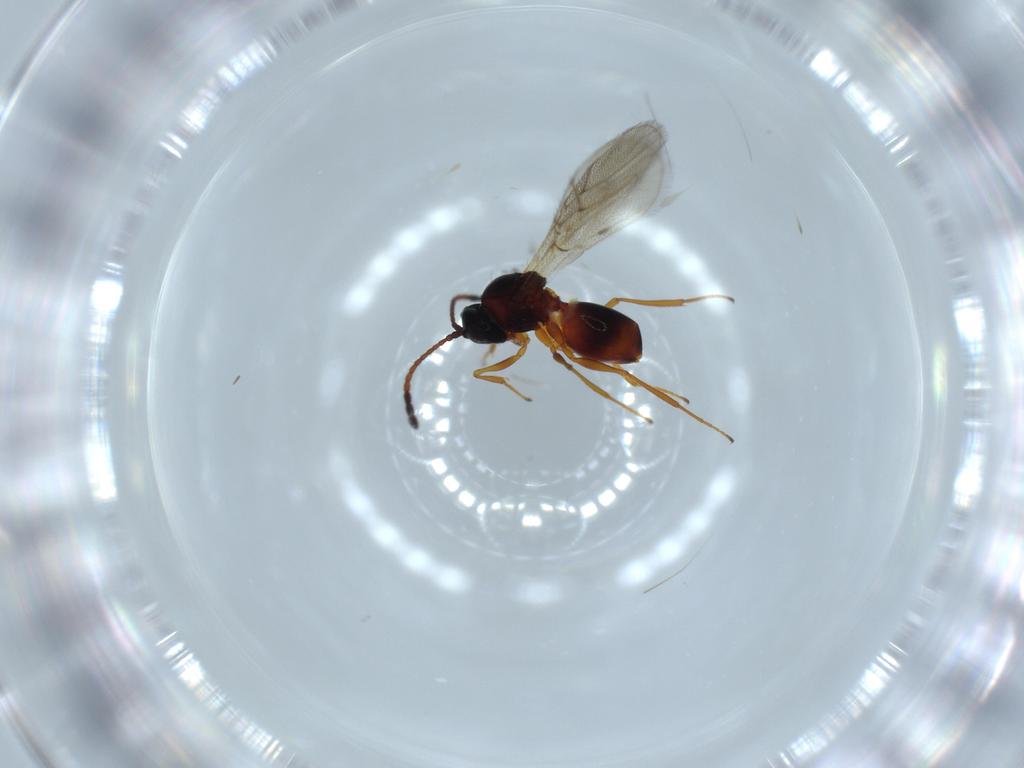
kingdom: Animalia
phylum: Arthropoda
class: Insecta
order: Hymenoptera
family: Figitidae
